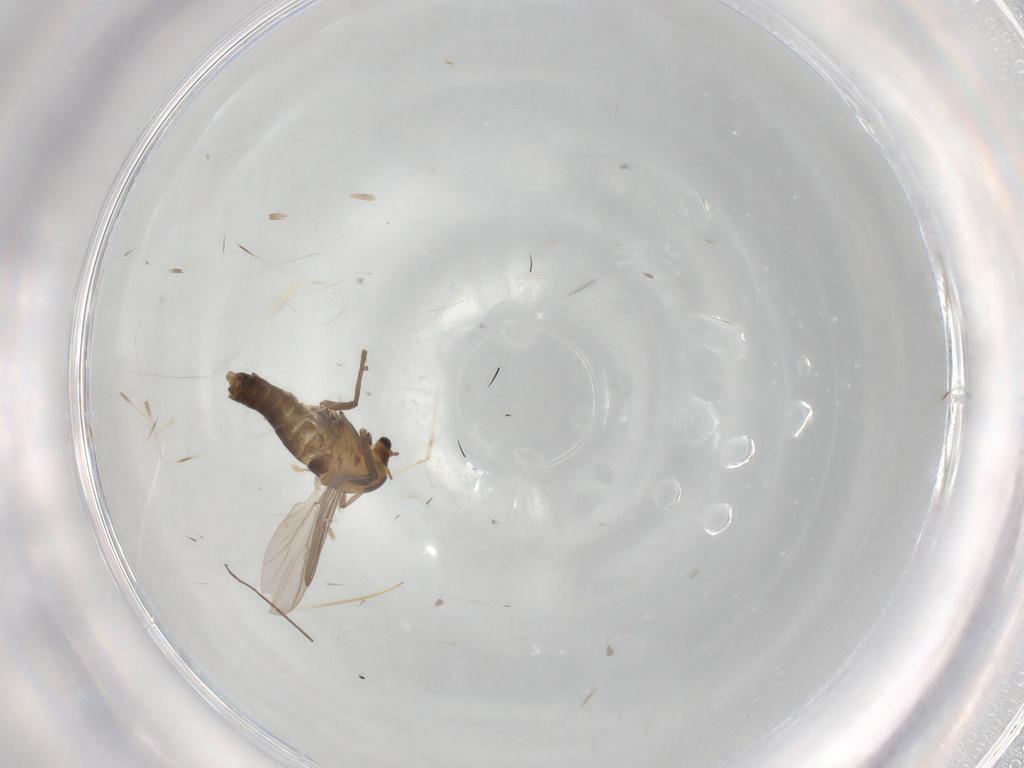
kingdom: Animalia
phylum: Arthropoda
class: Insecta
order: Diptera
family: Chironomidae
